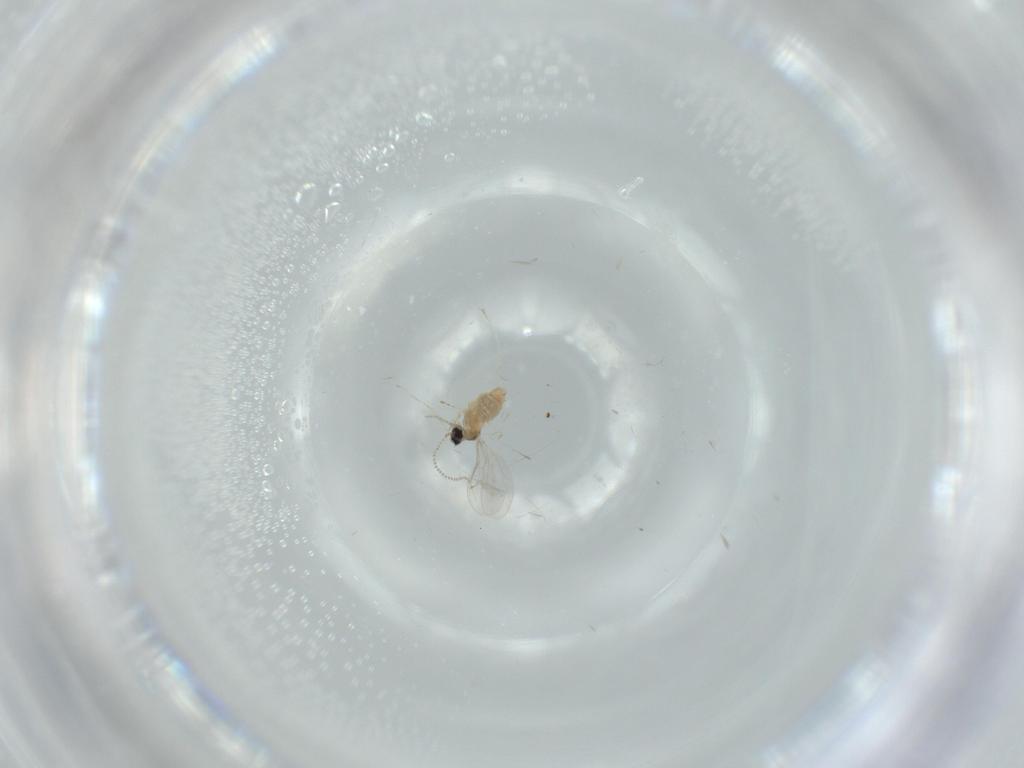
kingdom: Animalia
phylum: Arthropoda
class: Insecta
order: Diptera
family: Cecidomyiidae
